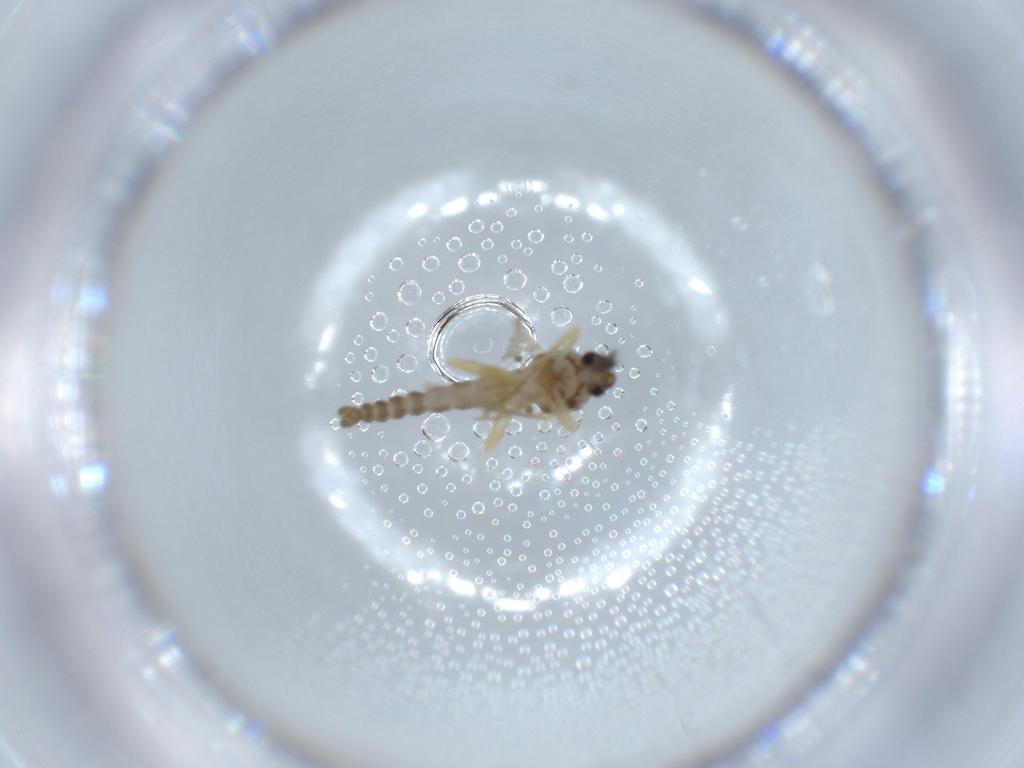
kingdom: Animalia
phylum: Arthropoda
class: Insecta
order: Diptera
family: Ceratopogonidae
